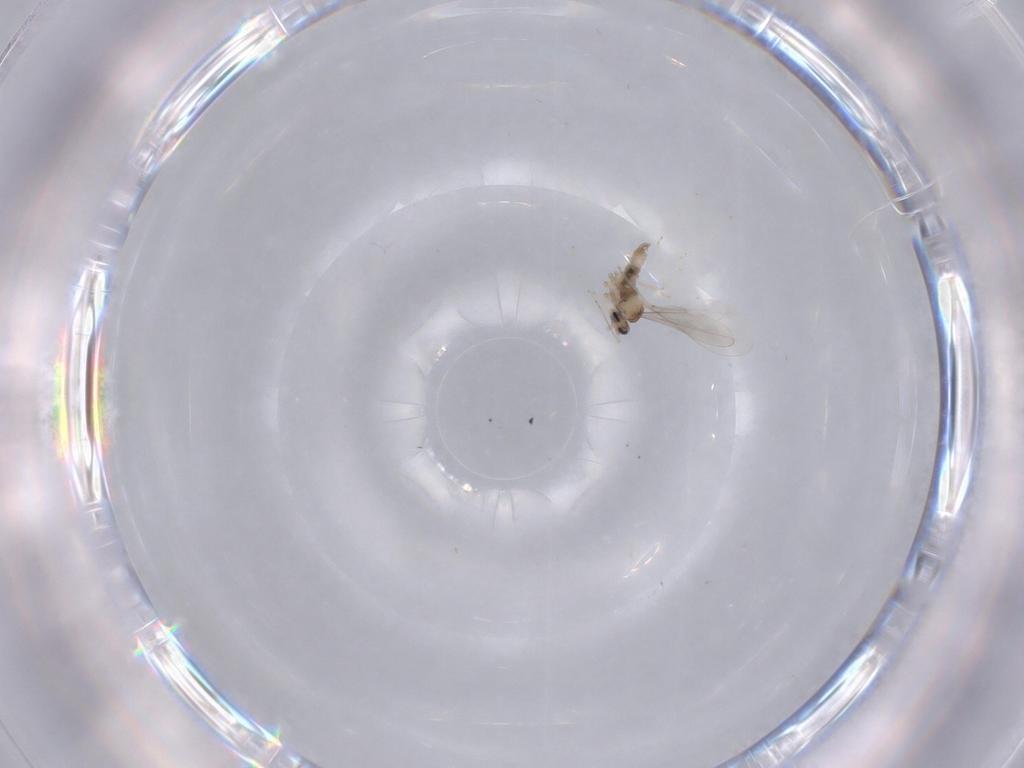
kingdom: Animalia
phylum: Arthropoda
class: Insecta
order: Diptera
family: Cecidomyiidae
